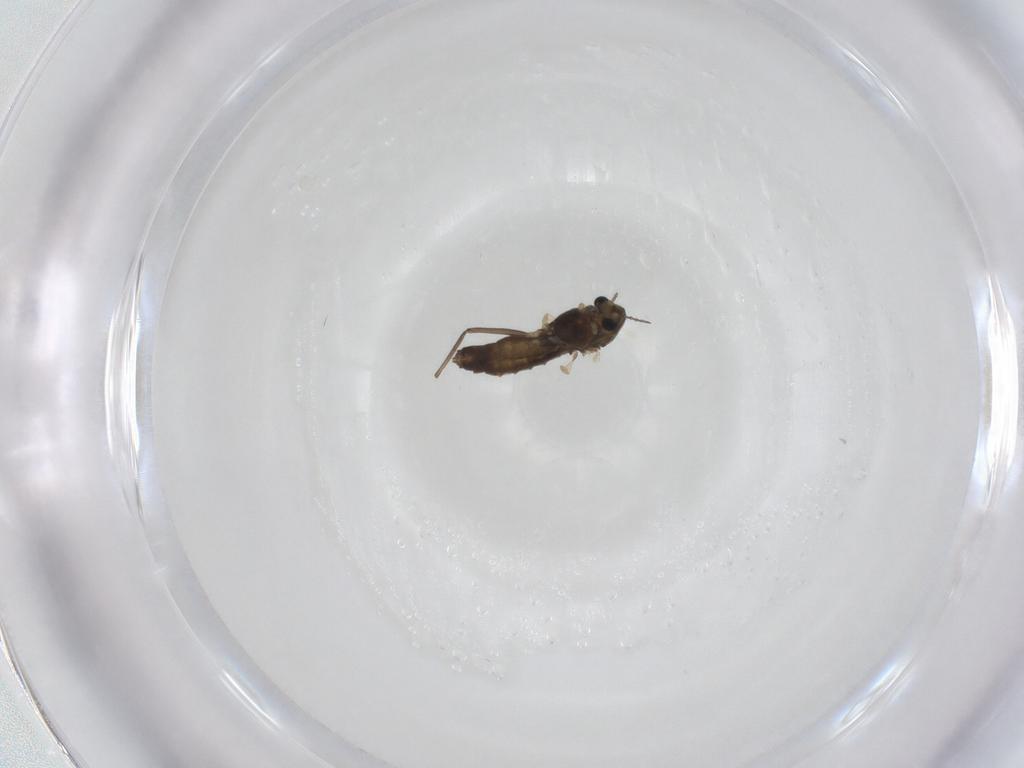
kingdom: Animalia
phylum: Arthropoda
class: Insecta
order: Diptera
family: Chironomidae
